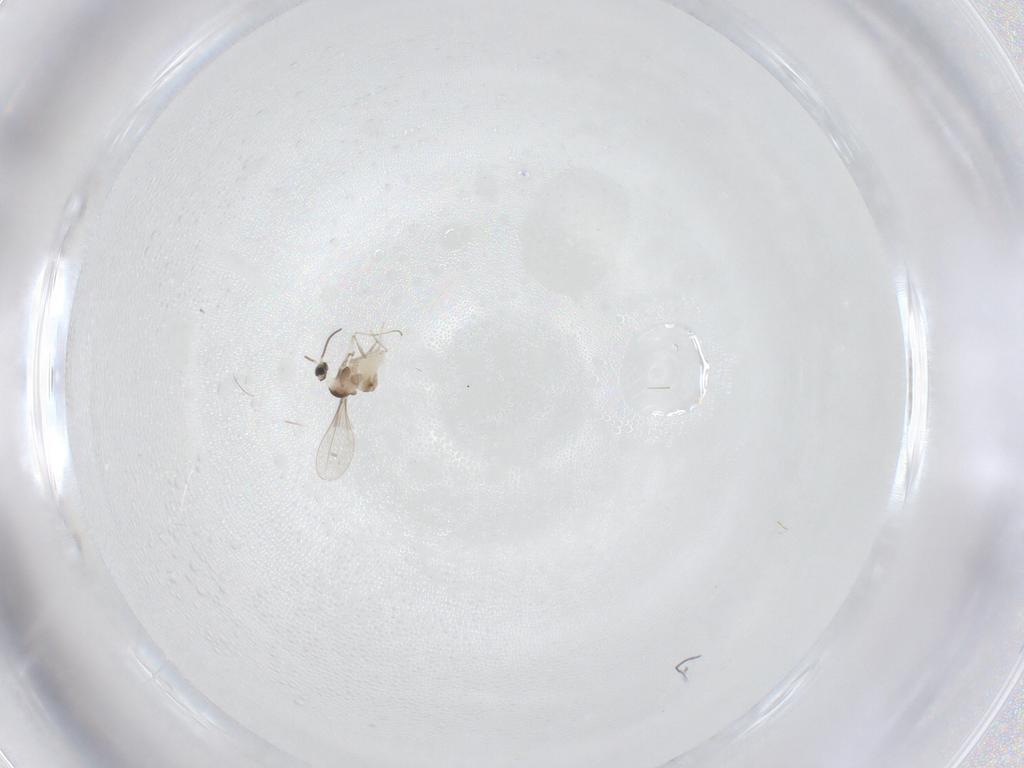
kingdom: Animalia
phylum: Arthropoda
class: Insecta
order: Diptera
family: Cecidomyiidae
